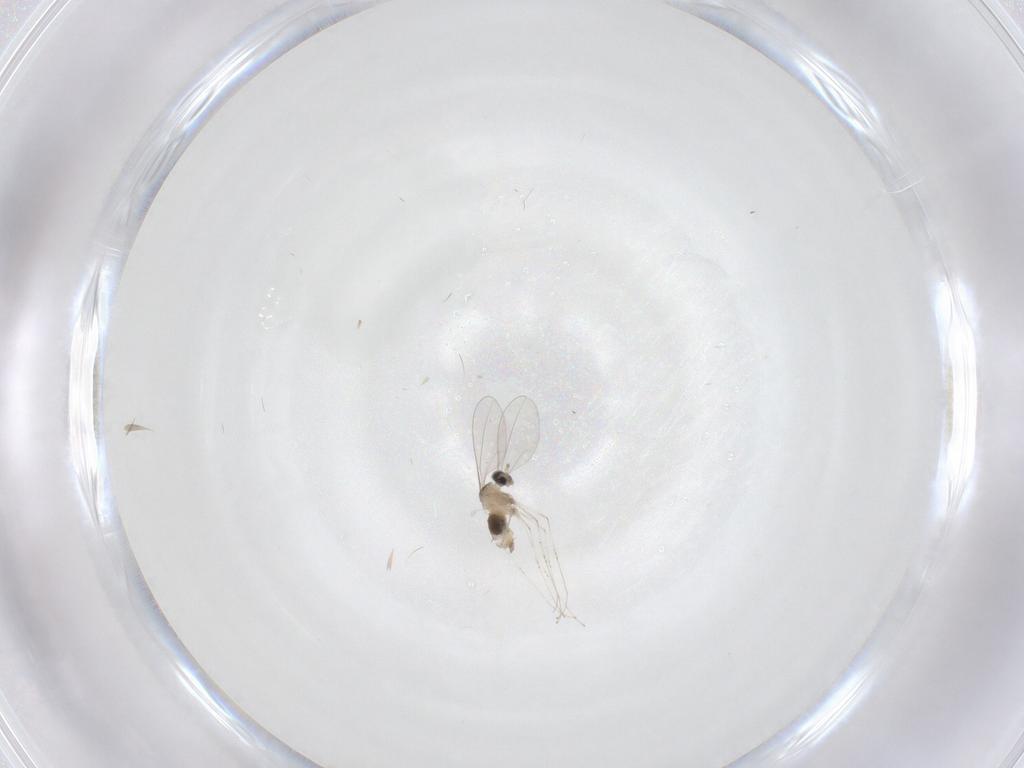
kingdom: Animalia
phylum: Arthropoda
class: Insecta
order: Diptera
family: Cecidomyiidae
